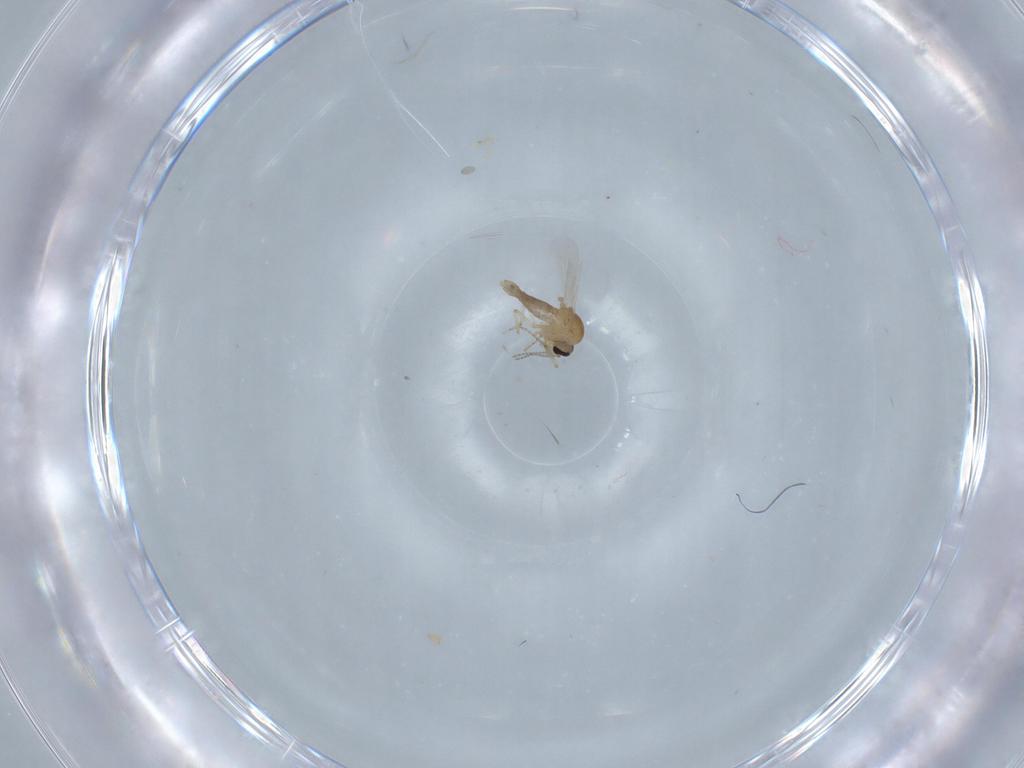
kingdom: Animalia
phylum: Arthropoda
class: Insecta
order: Diptera
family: Ceratopogonidae
